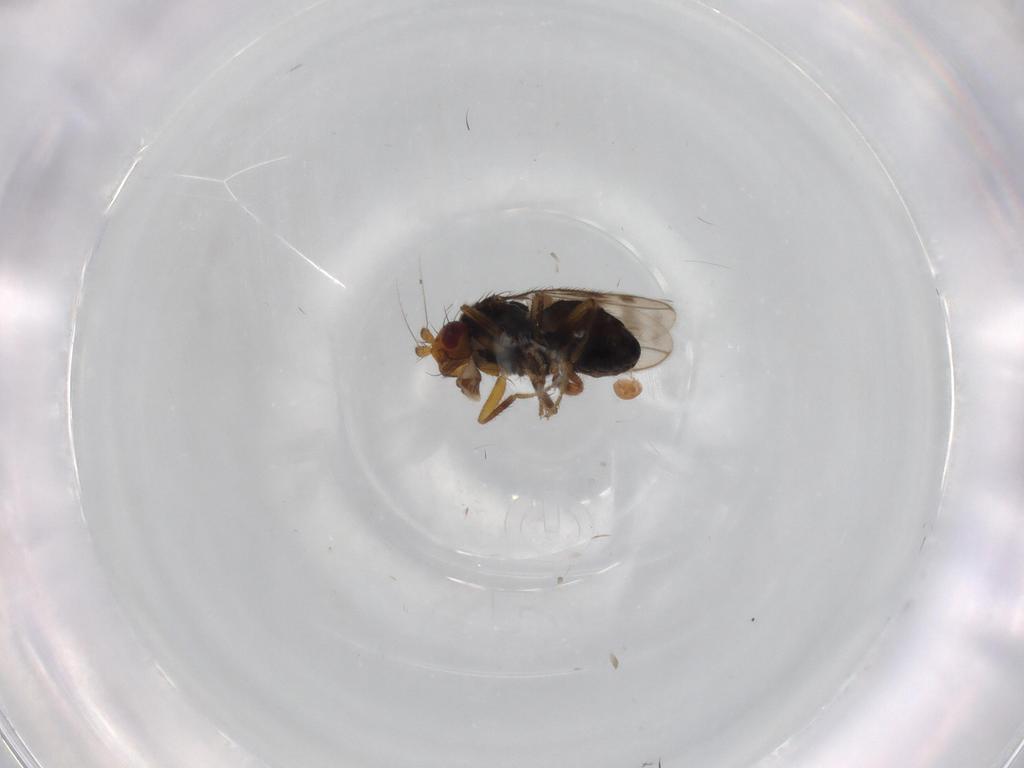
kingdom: Animalia
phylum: Arthropoda
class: Insecta
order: Diptera
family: Sphaeroceridae
